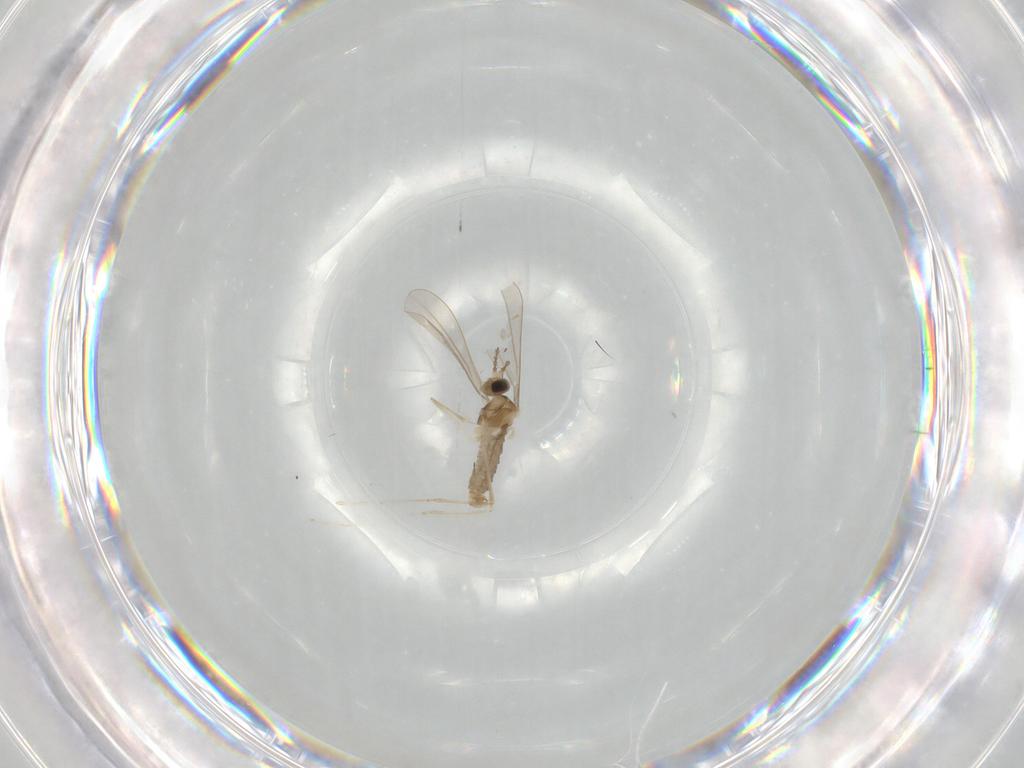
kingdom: Animalia
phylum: Arthropoda
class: Insecta
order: Diptera
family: Cecidomyiidae
